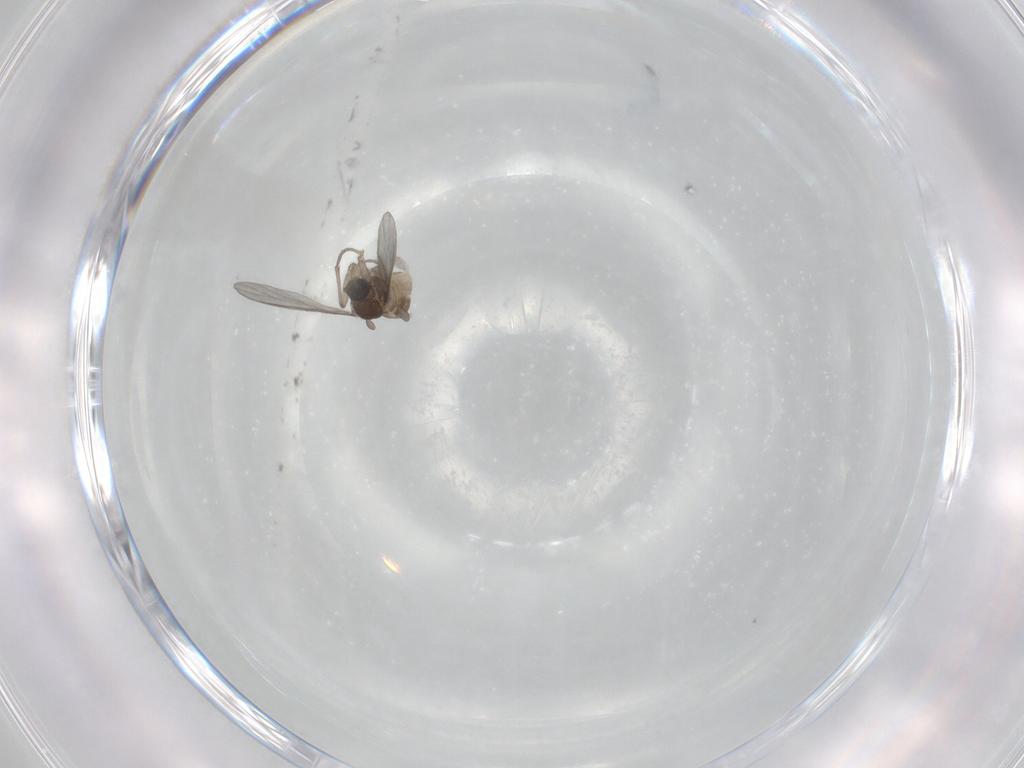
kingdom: Animalia
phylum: Arthropoda
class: Insecta
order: Diptera
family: Sciaridae
